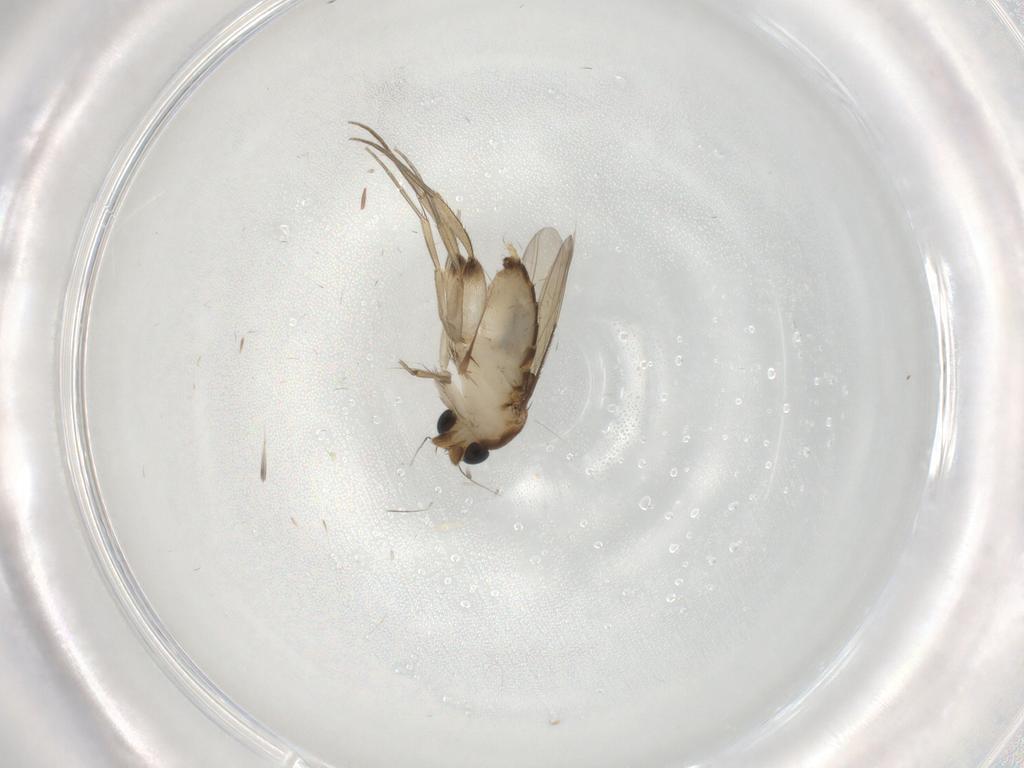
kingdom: Animalia
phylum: Arthropoda
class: Insecta
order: Diptera
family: Phoridae
